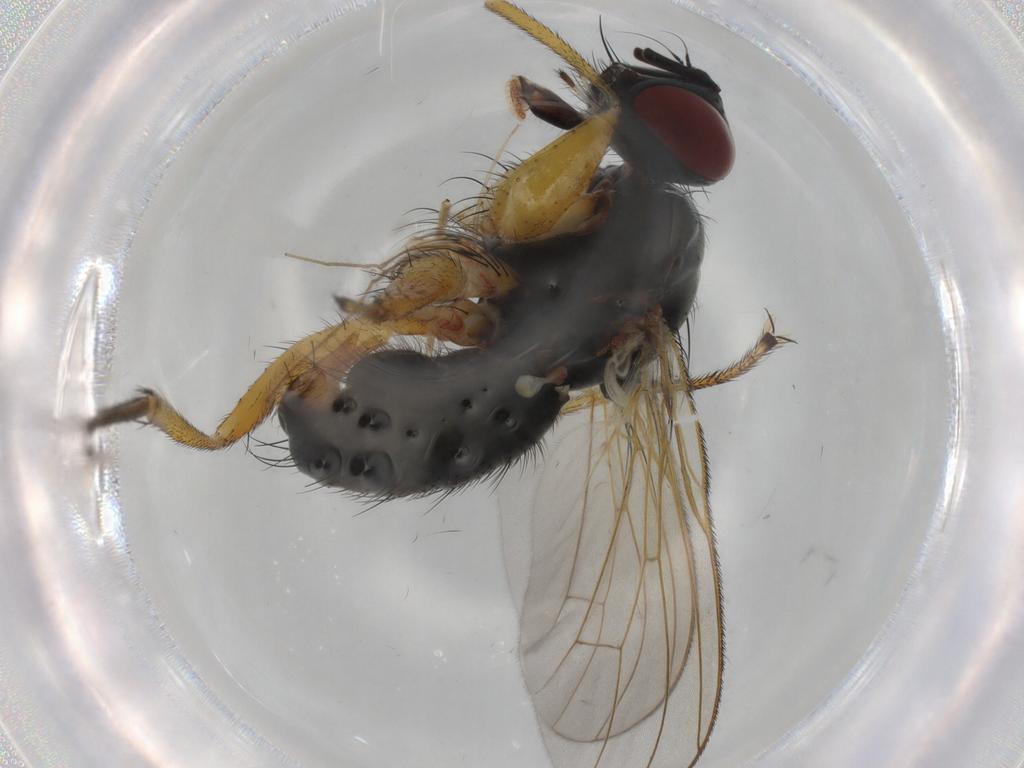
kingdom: Animalia
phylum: Arthropoda
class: Insecta
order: Diptera
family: Muscidae
